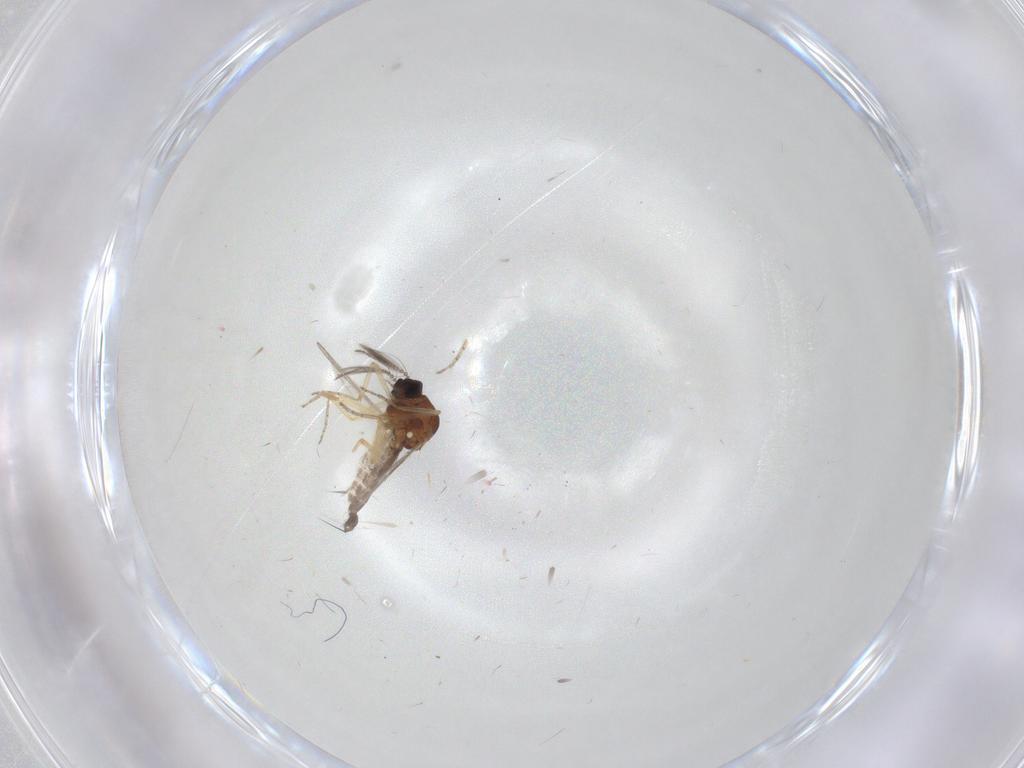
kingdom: Animalia
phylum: Arthropoda
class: Insecta
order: Diptera
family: Ceratopogonidae
